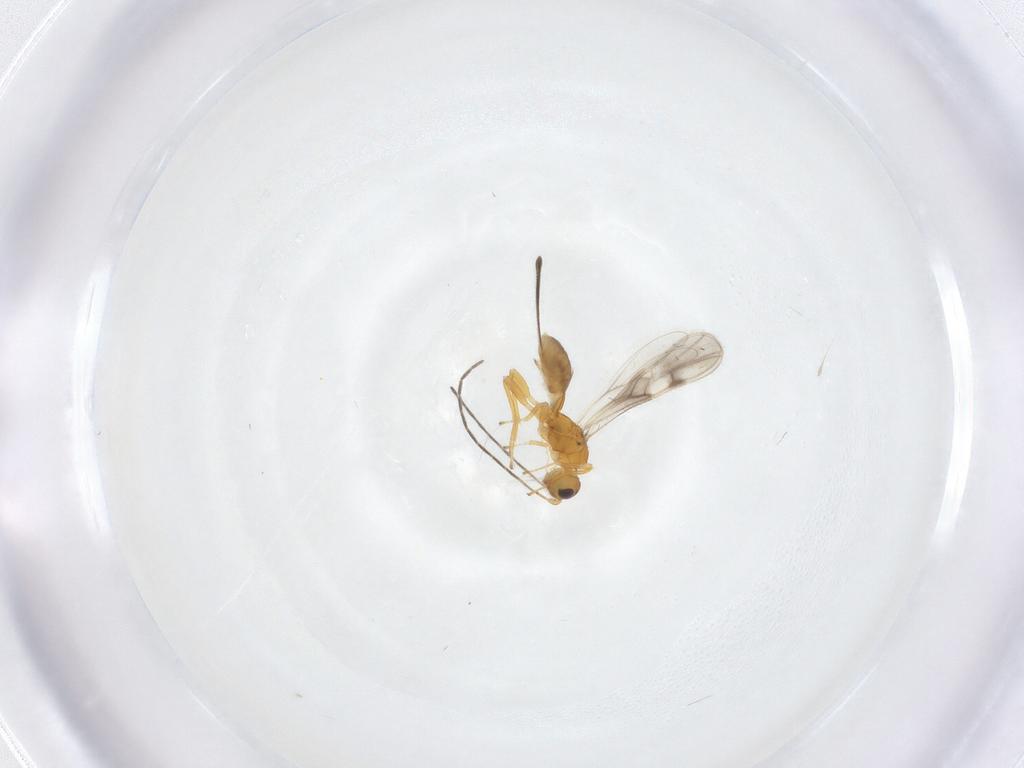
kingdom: Animalia
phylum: Arthropoda
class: Insecta
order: Hymenoptera
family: Braconidae
